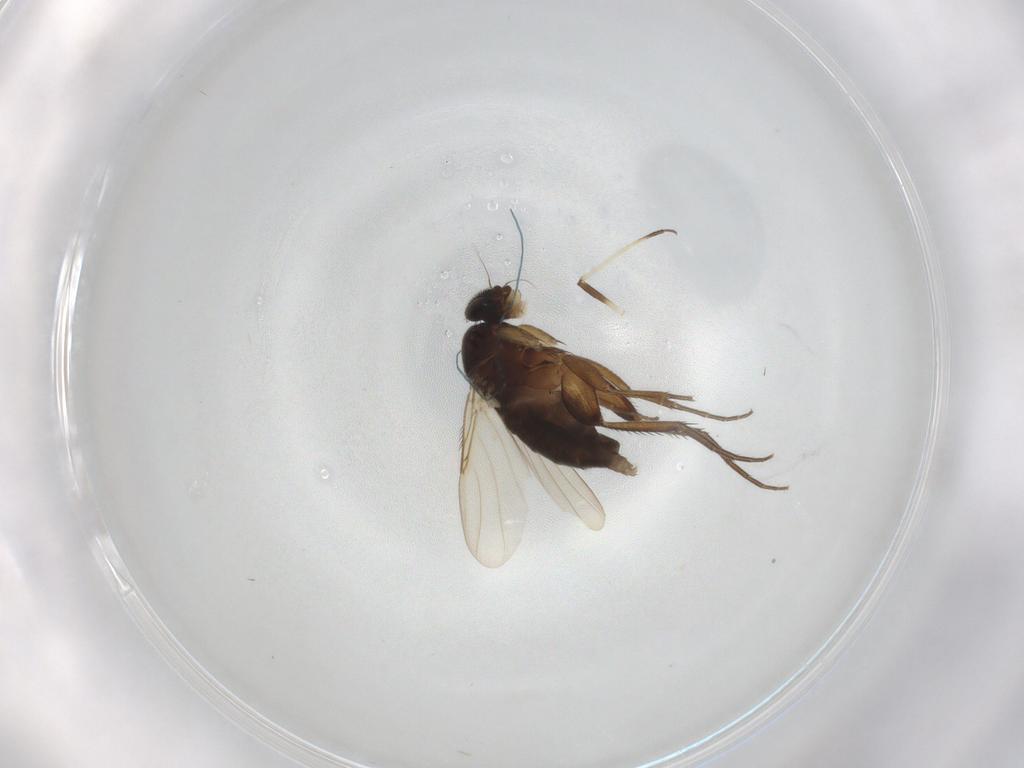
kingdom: Animalia
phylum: Arthropoda
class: Insecta
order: Diptera
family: Phoridae
